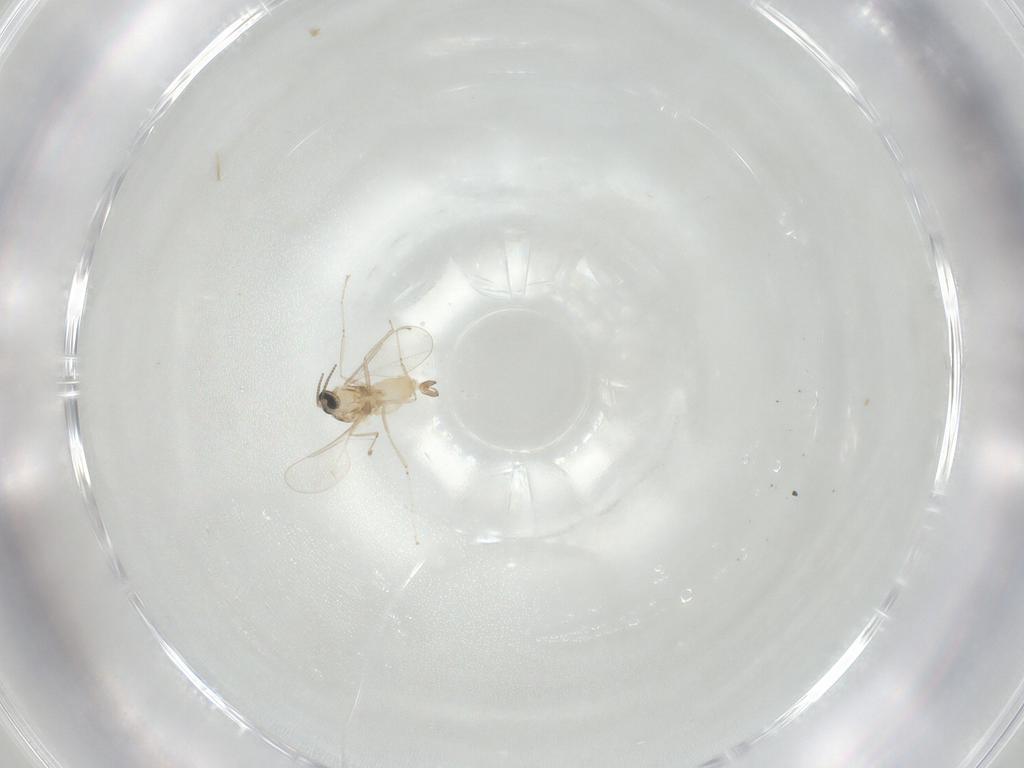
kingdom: Animalia
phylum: Arthropoda
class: Insecta
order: Diptera
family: Cecidomyiidae
